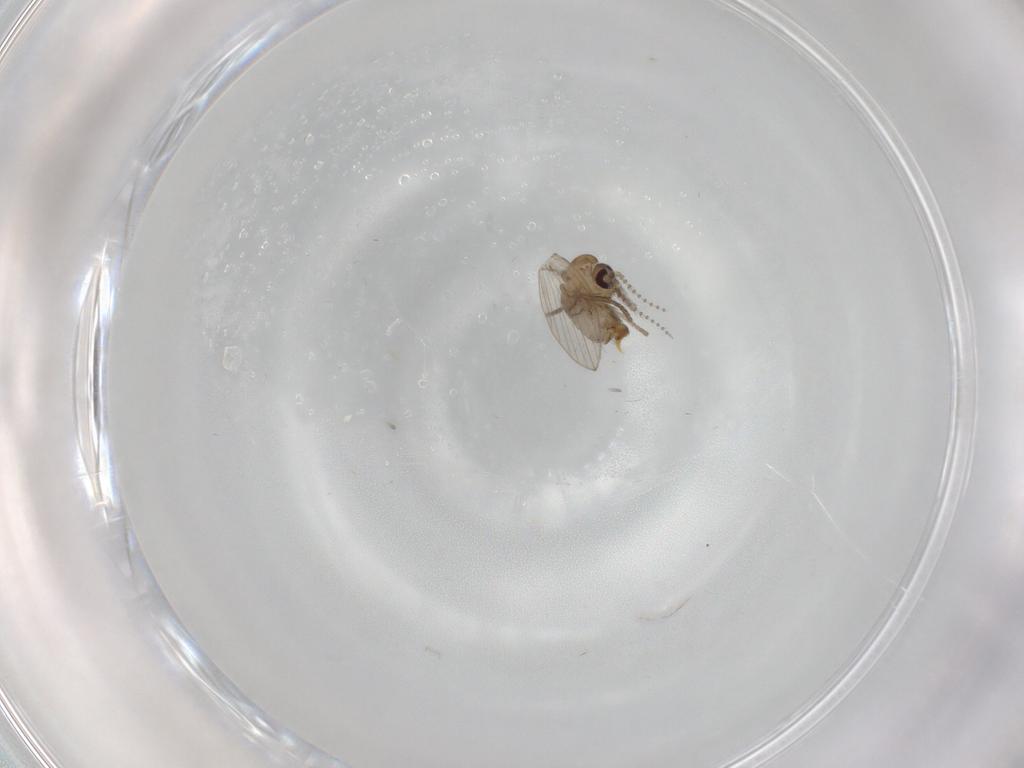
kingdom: Animalia
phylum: Arthropoda
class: Insecta
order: Diptera
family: Psychodidae
